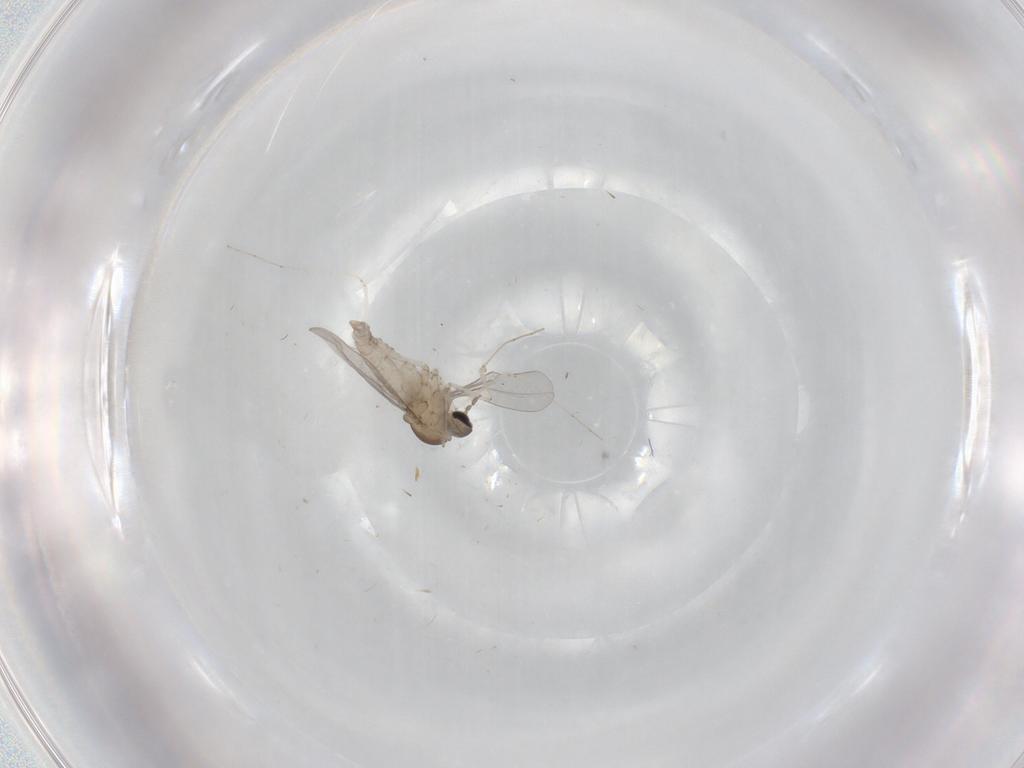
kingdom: Animalia
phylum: Arthropoda
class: Insecta
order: Diptera
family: Cecidomyiidae
